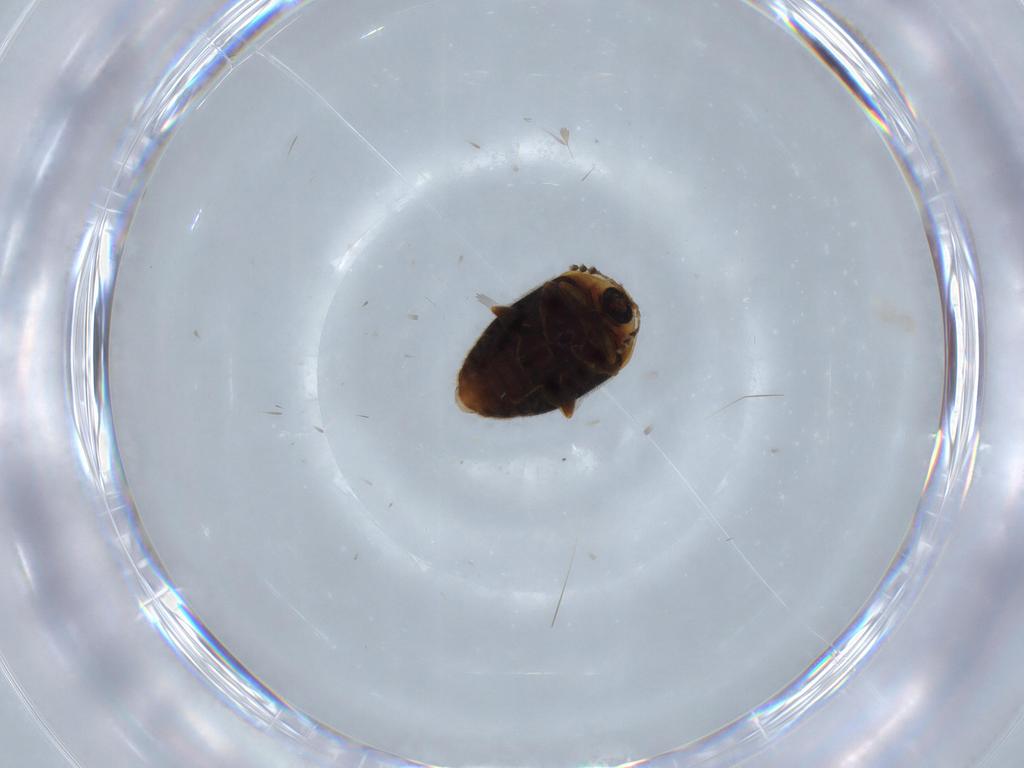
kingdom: Animalia
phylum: Arthropoda
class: Insecta
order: Coleoptera
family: Corylophidae
